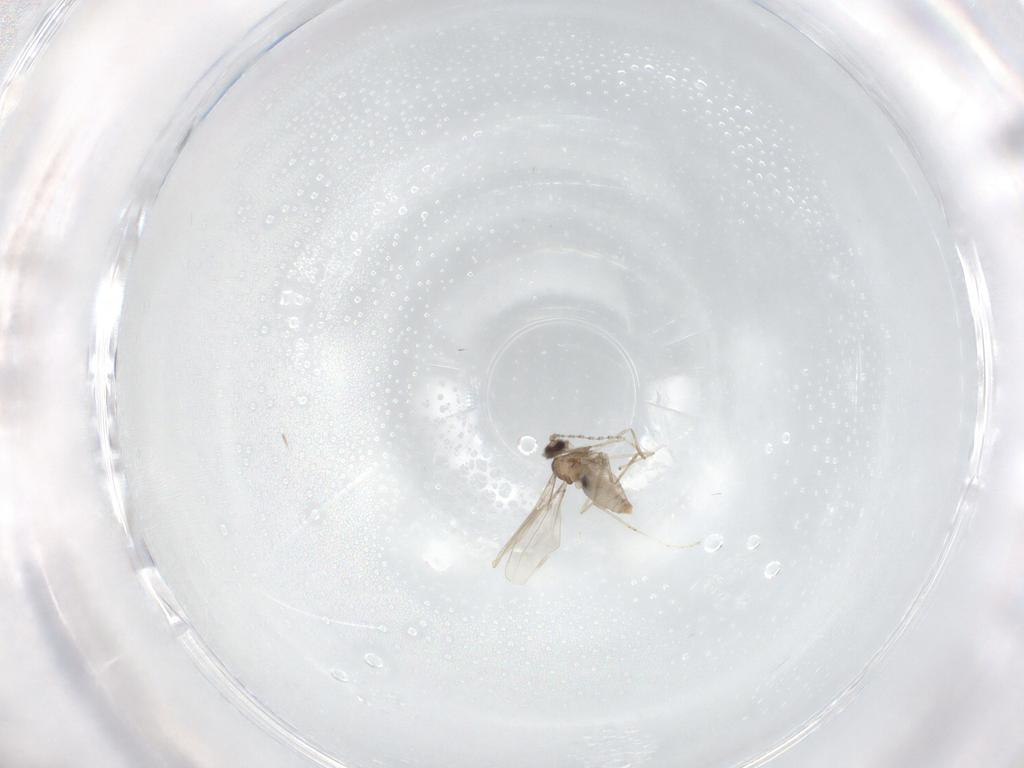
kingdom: Animalia
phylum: Arthropoda
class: Insecta
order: Diptera
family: Cecidomyiidae
